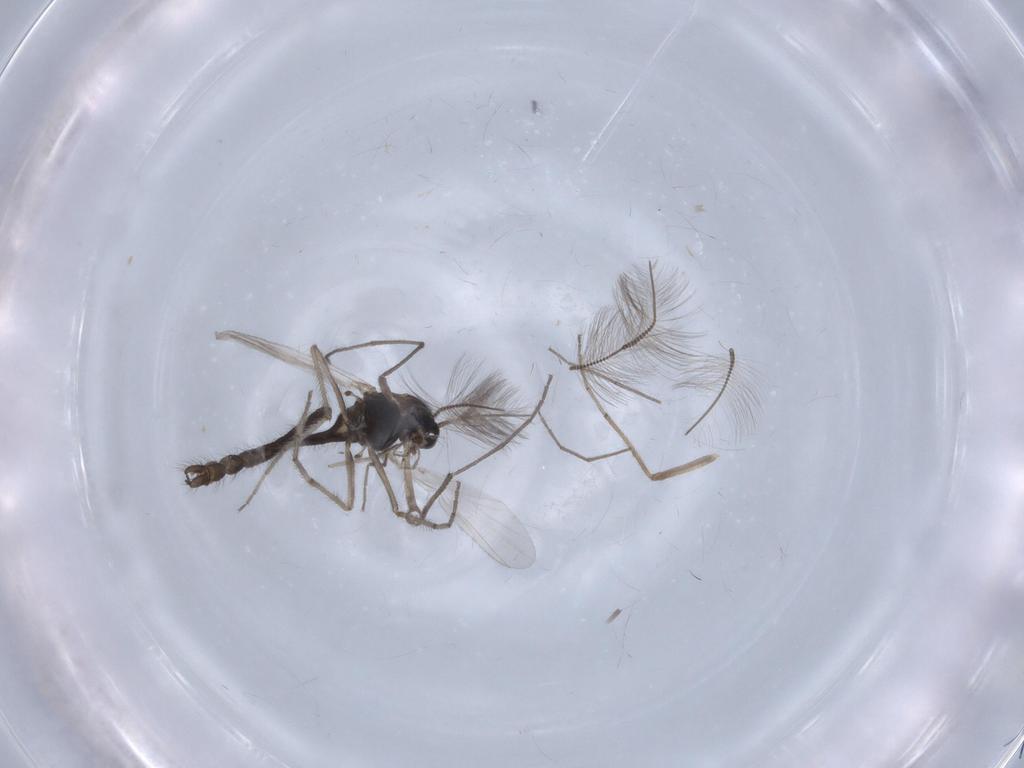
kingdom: Animalia
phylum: Arthropoda
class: Insecta
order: Diptera
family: Chironomidae
